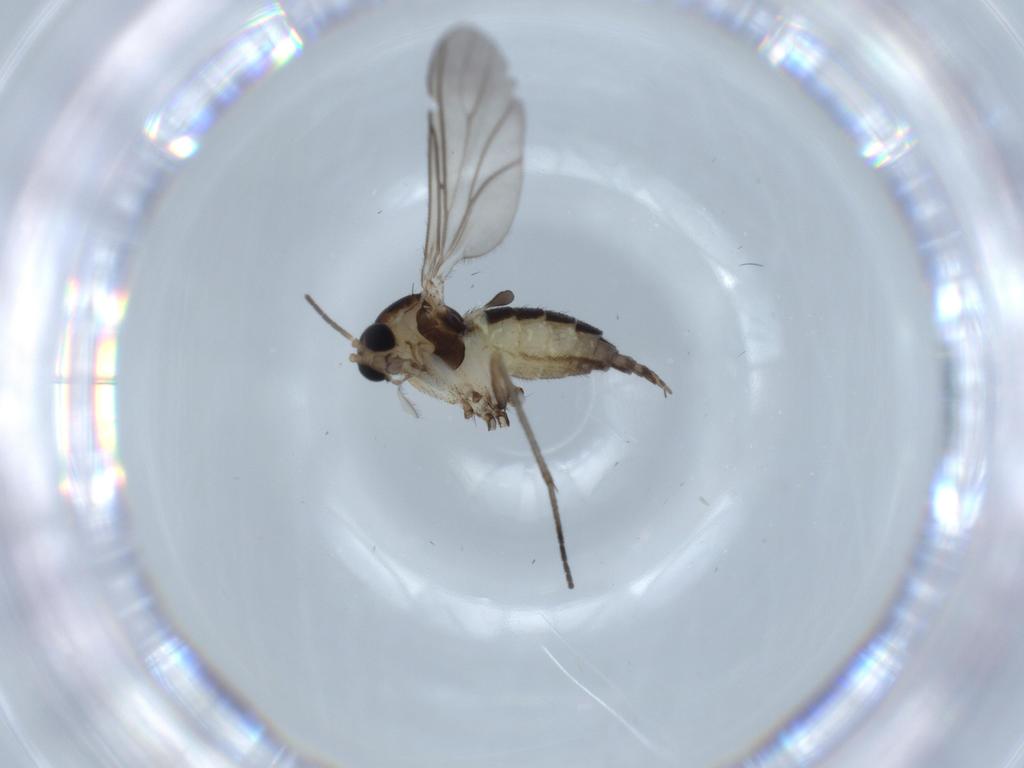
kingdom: Animalia
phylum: Arthropoda
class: Insecta
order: Diptera
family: Sciaridae
